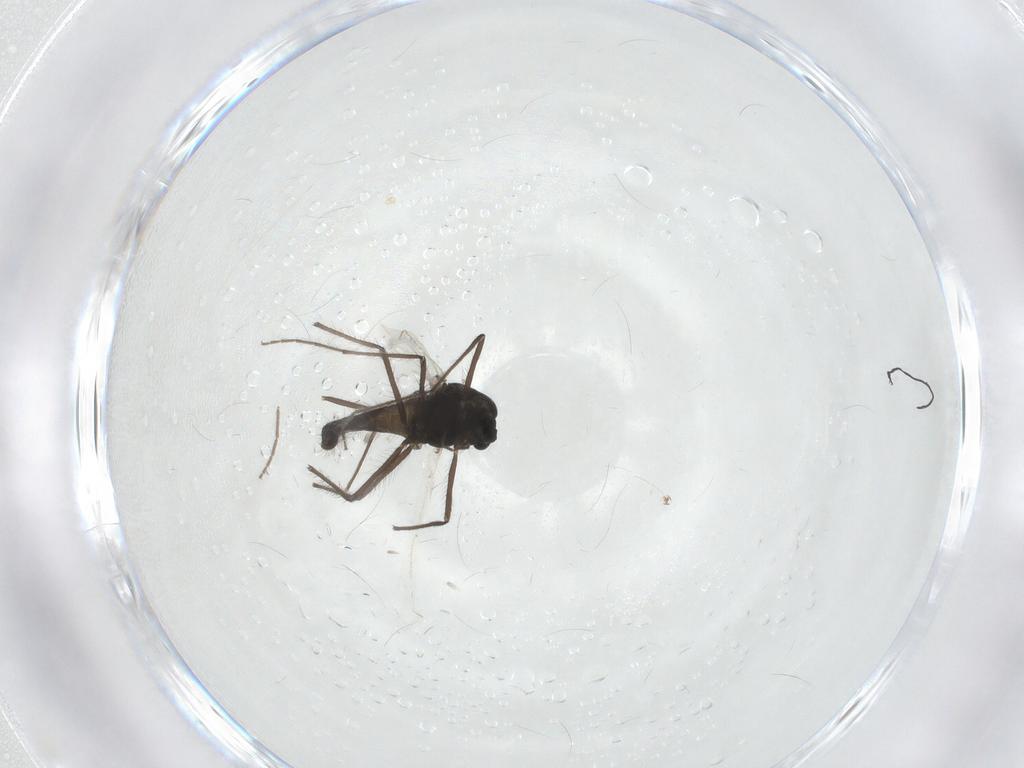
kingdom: Animalia
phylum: Arthropoda
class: Insecta
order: Diptera
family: Chironomidae
